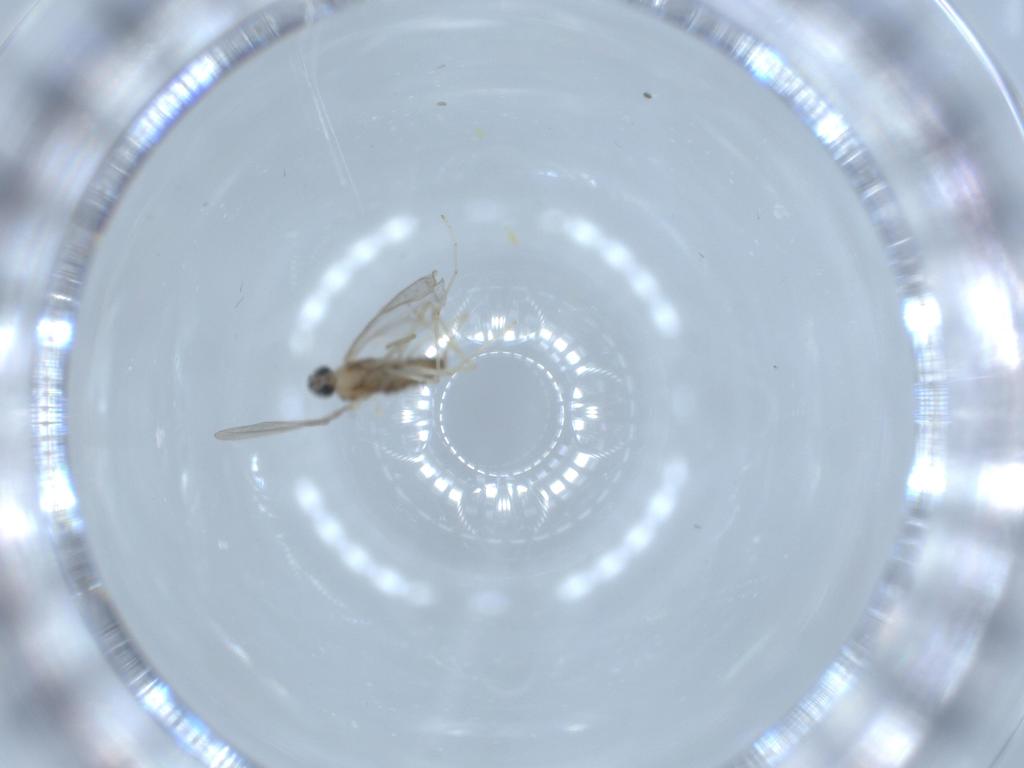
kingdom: Animalia
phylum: Arthropoda
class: Insecta
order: Diptera
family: Cecidomyiidae
